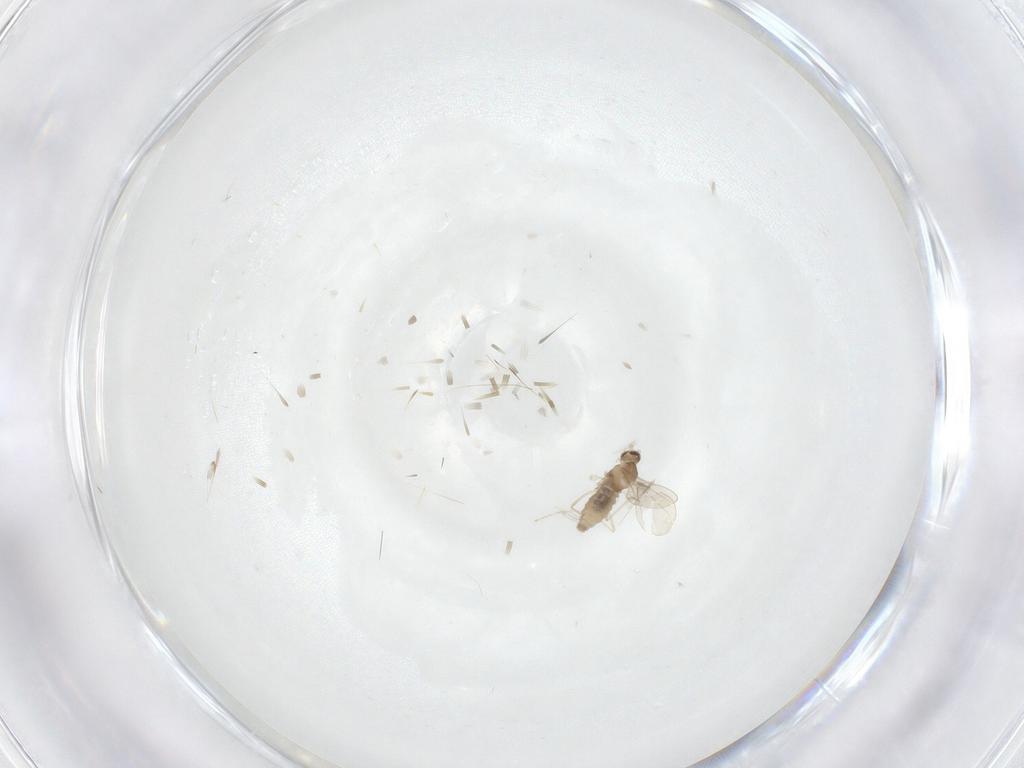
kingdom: Animalia
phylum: Arthropoda
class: Insecta
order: Diptera
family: Cecidomyiidae
